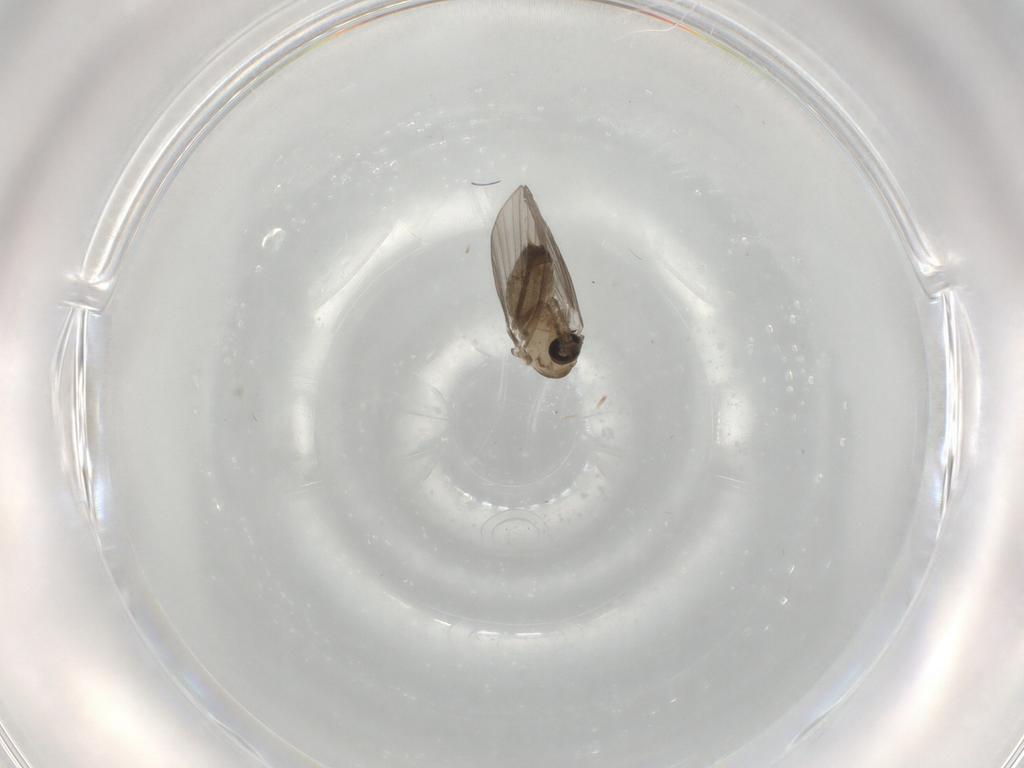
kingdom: Animalia
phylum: Arthropoda
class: Insecta
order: Diptera
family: Psychodidae
